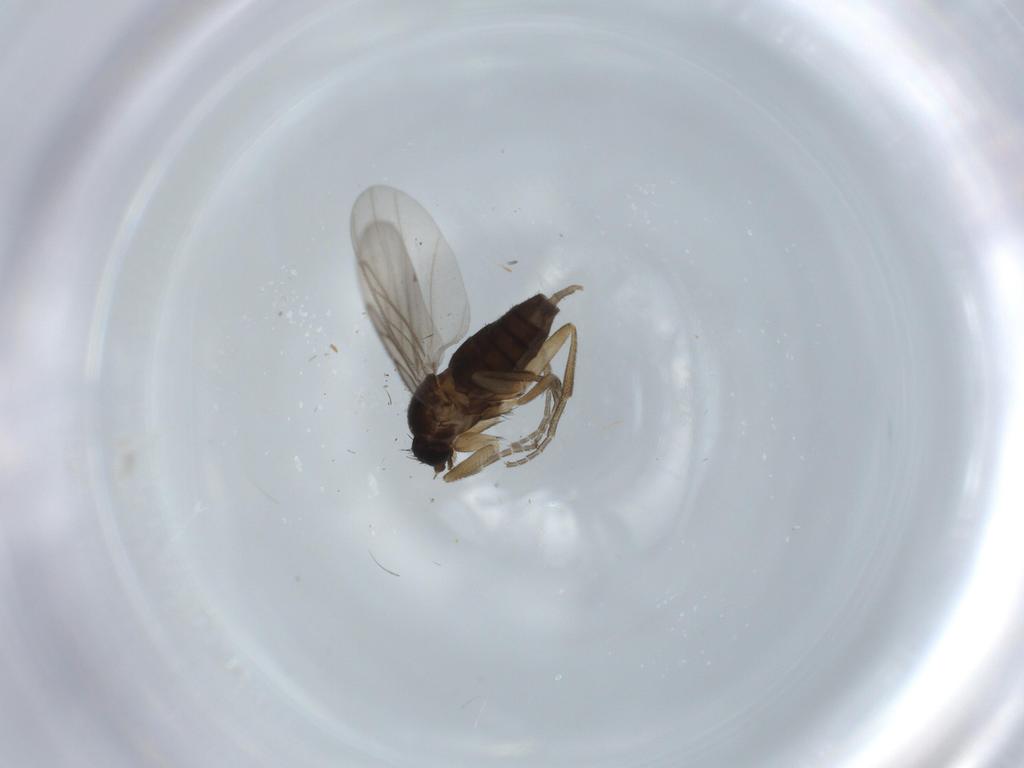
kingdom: Animalia
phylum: Arthropoda
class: Insecta
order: Diptera
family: Phoridae
